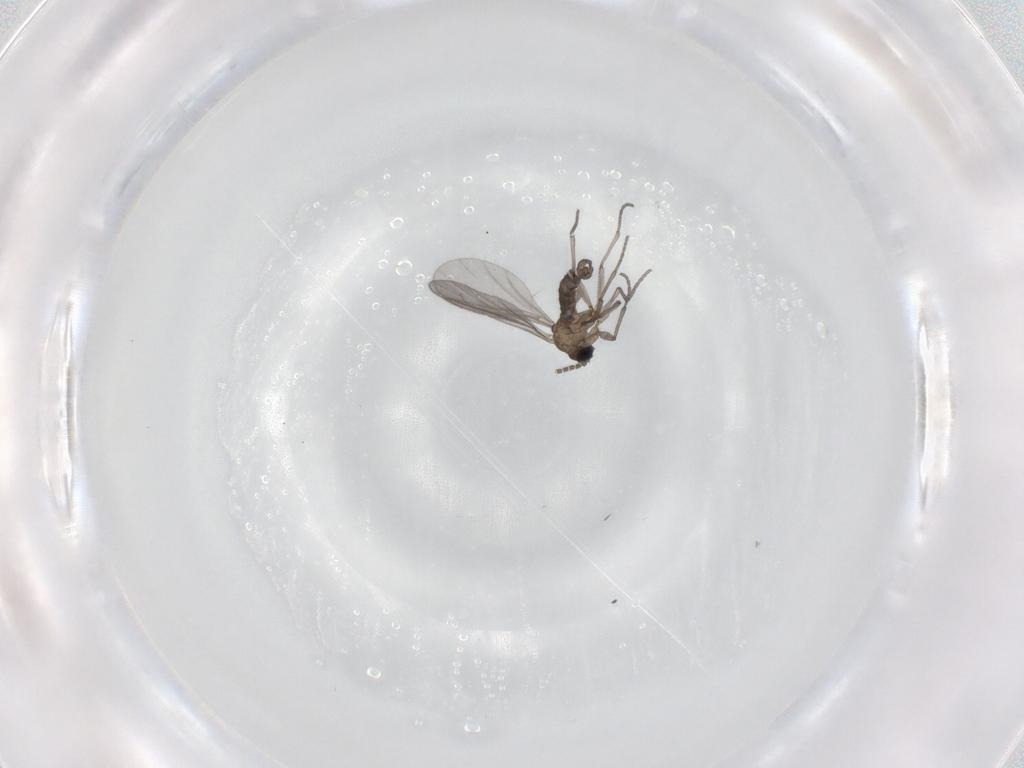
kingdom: Animalia
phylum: Arthropoda
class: Insecta
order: Diptera
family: Sciaridae
